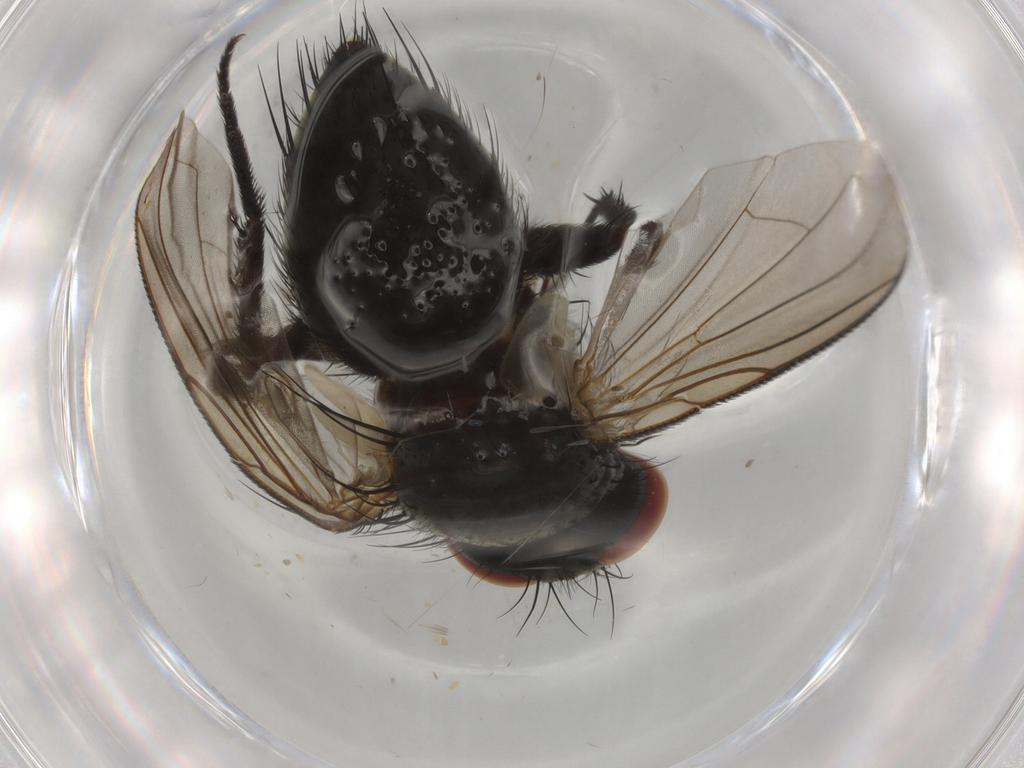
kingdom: Animalia
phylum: Arthropoda
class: Insecta
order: Diptera
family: Tachinidae
